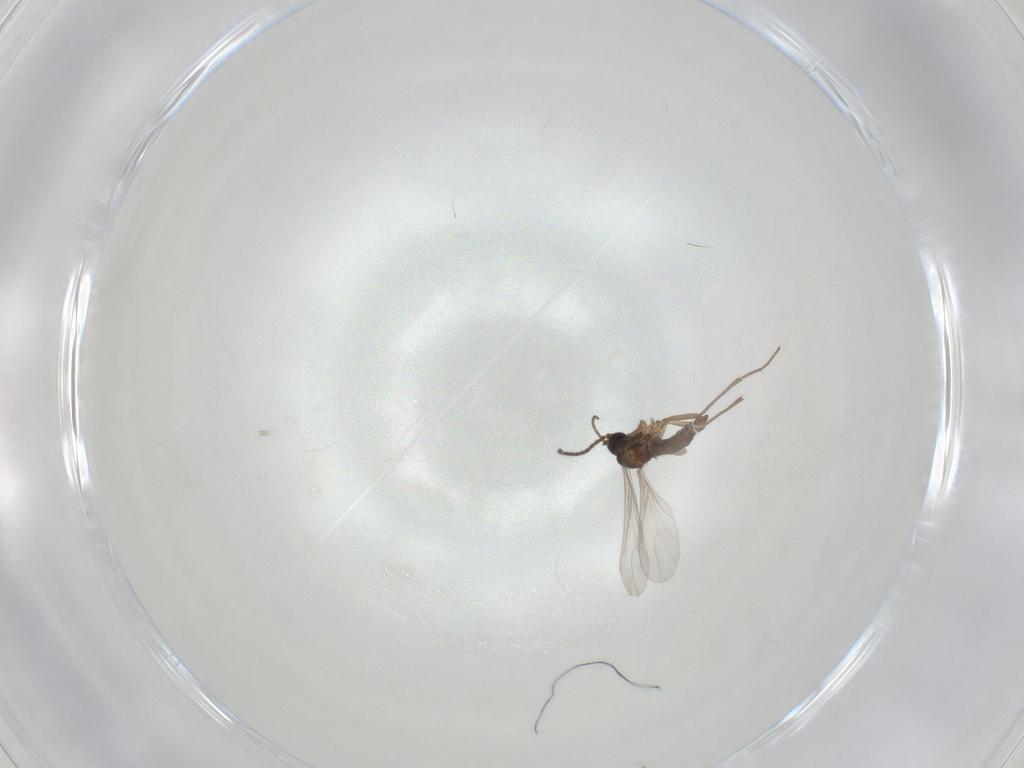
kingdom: Animalia
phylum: Arthropoda
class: Insecta
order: Diptera
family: Sciaridae
